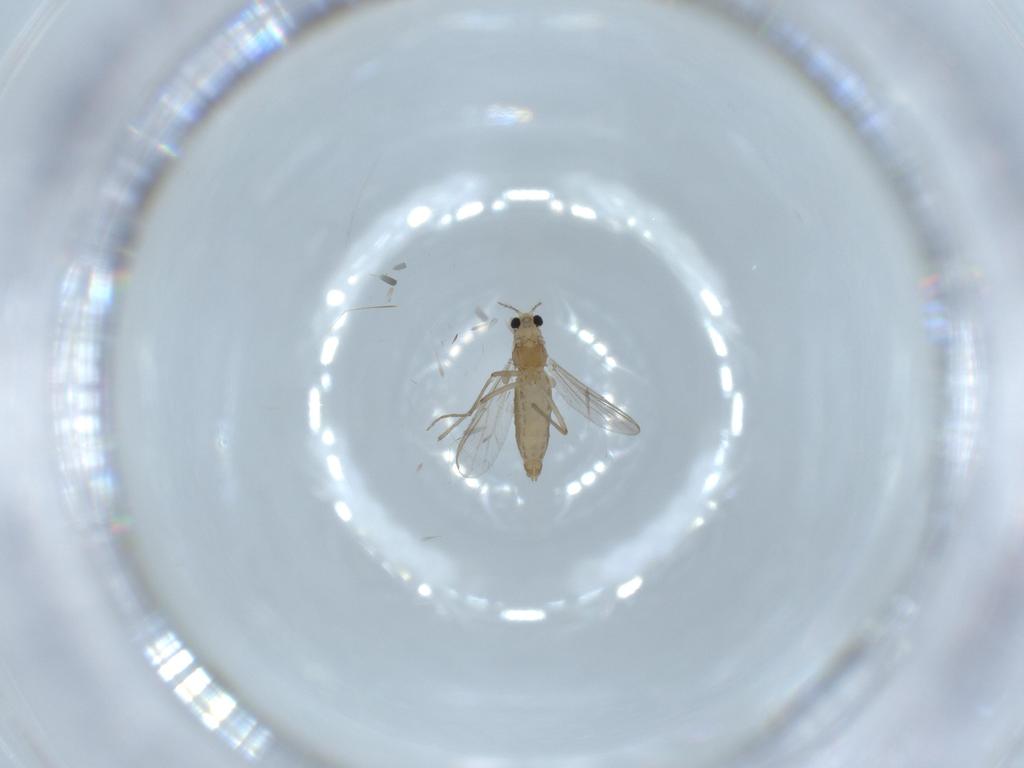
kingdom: Animalia
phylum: Arthropoda
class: Insecta
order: Diptera
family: Chironomidae
